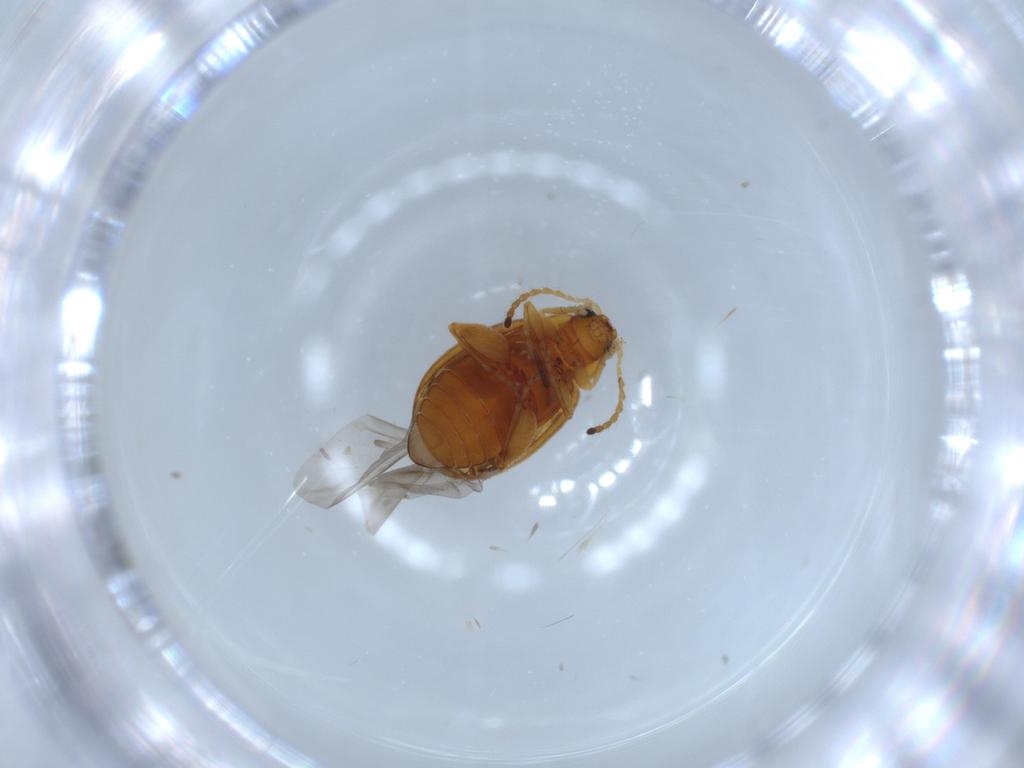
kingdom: Animalia
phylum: Arthropoda
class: Insecta
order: Coleoptera
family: Chrysomelidae
